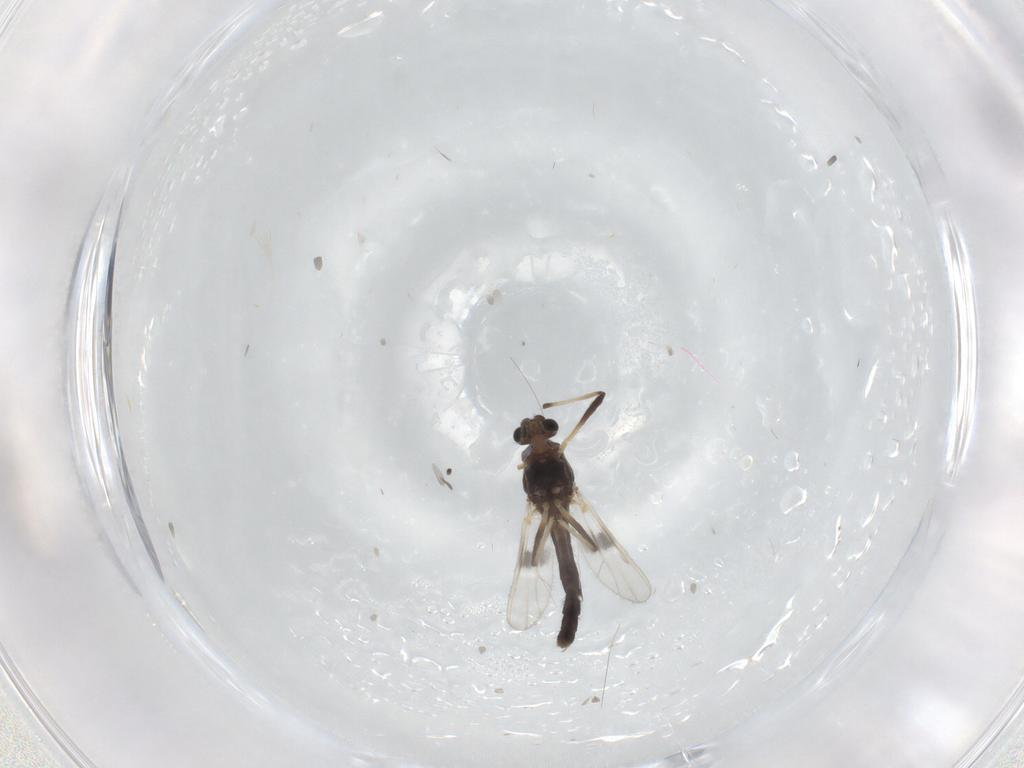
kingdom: Animalia
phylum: Arthropoda
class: Insecta
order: Diptera
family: Chironomidae
